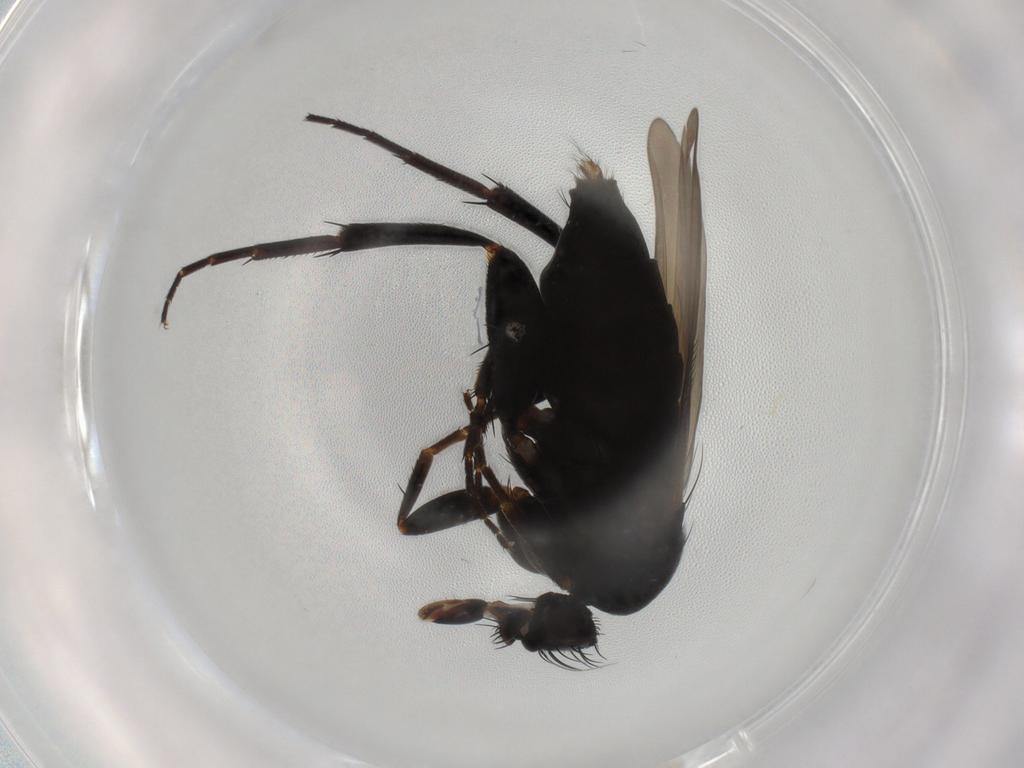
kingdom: Animalia
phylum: Arthropoda
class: Insecta
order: Diptera
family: Phoridae
